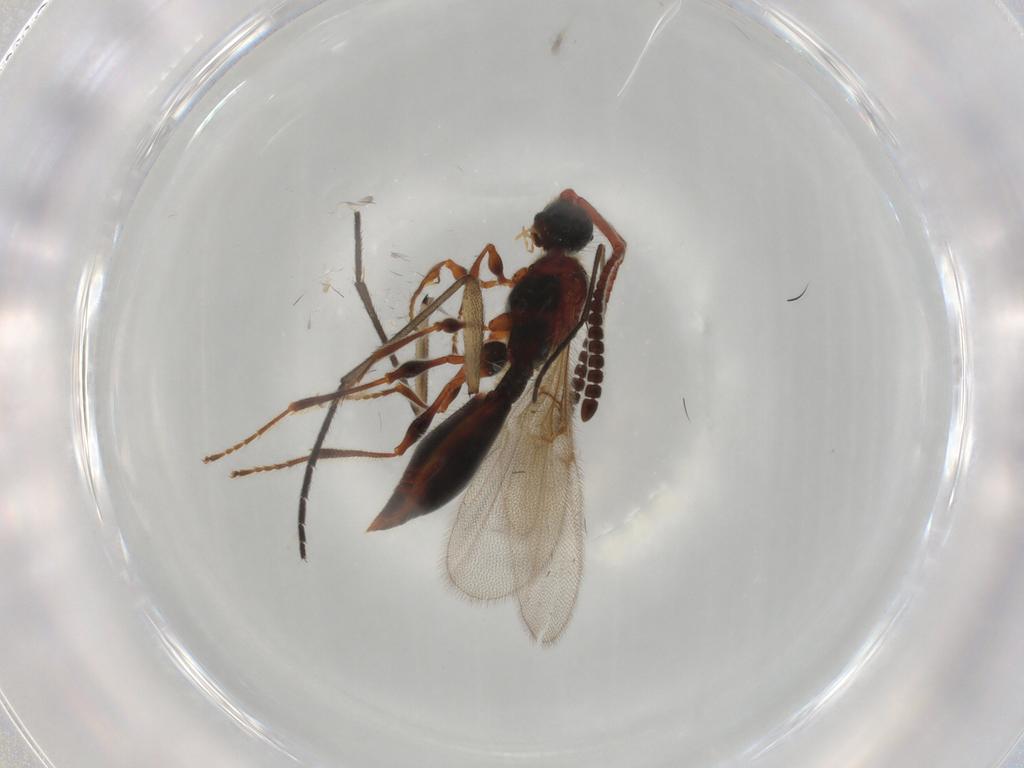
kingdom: Animalia
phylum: Arthropoda
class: Insecta
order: Hymenoptera
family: Diapriidae
